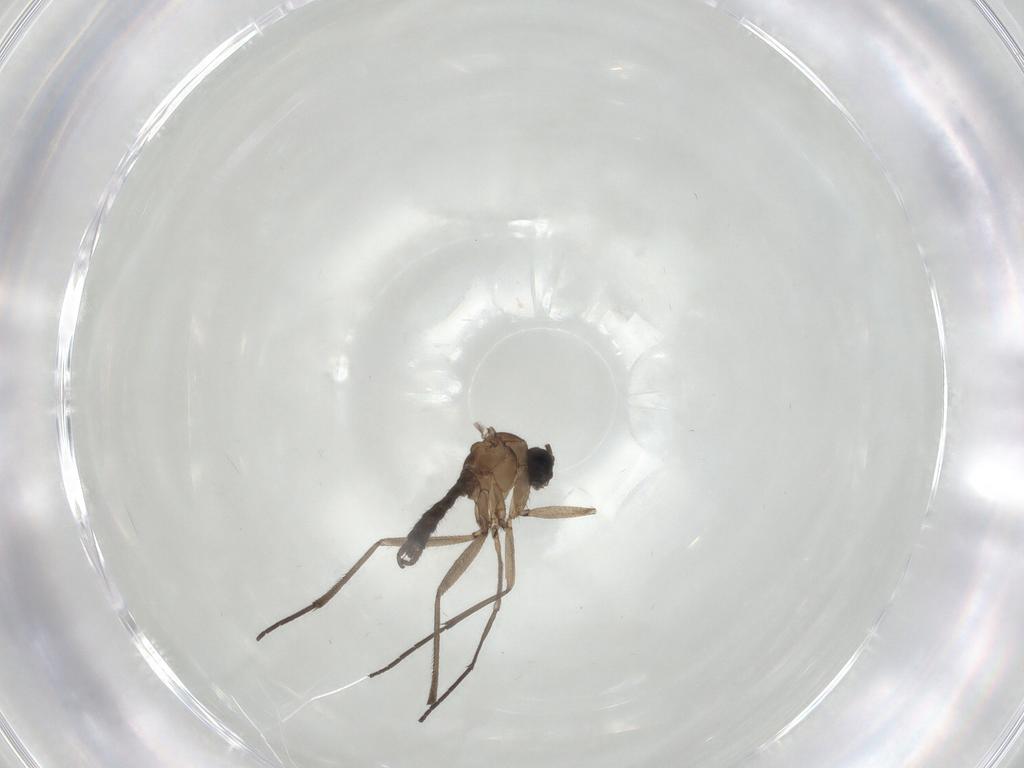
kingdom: Animalia
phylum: Arthropoda
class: Insecta
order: Diptera
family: Sciaridae
